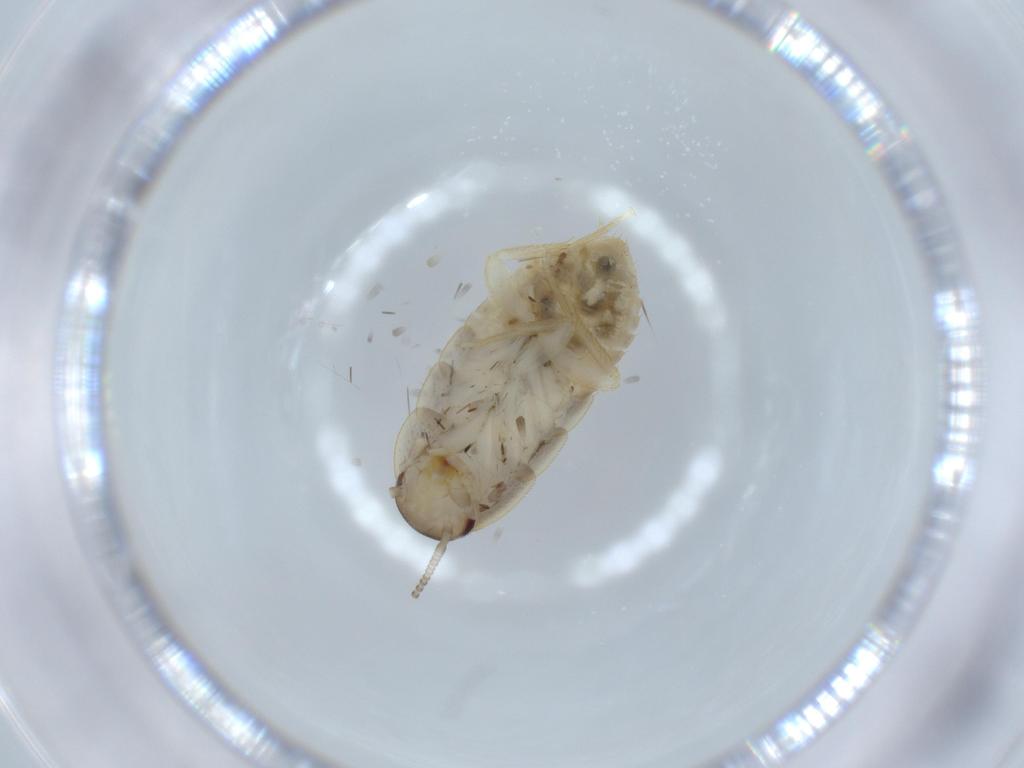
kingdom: Animalia
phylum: Arthropoda
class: Insecta
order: Blattodea
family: Ectobiidae
